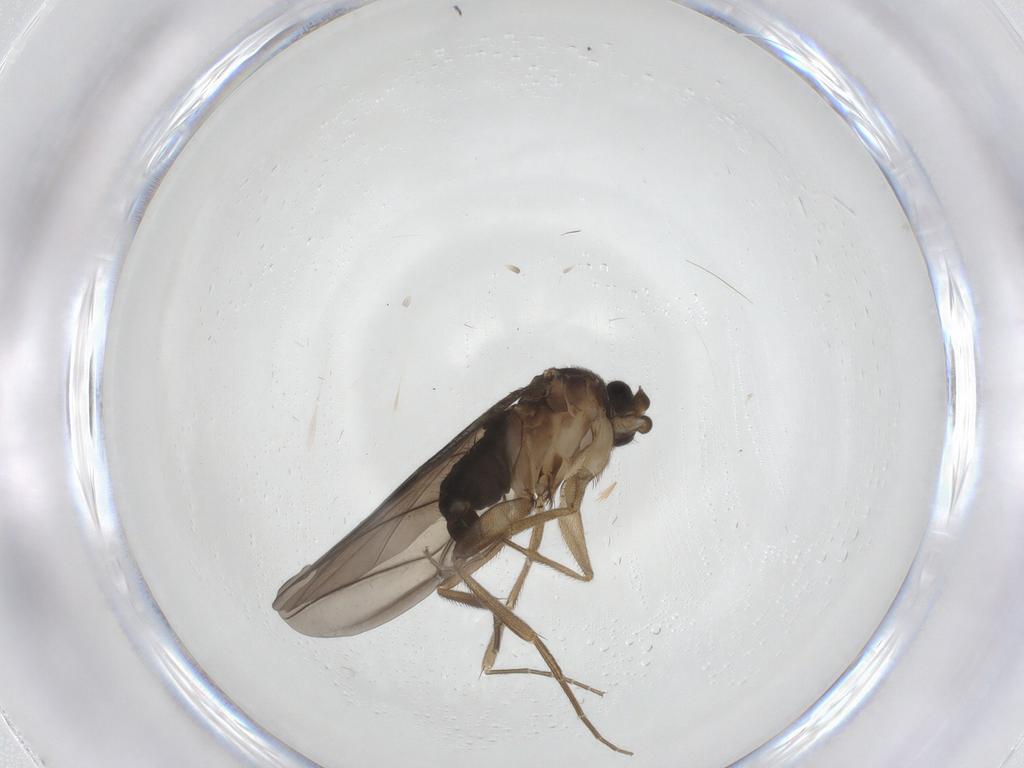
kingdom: Animalia
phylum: Arthropoda
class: Insecta
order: Diptera
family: Phoridae
